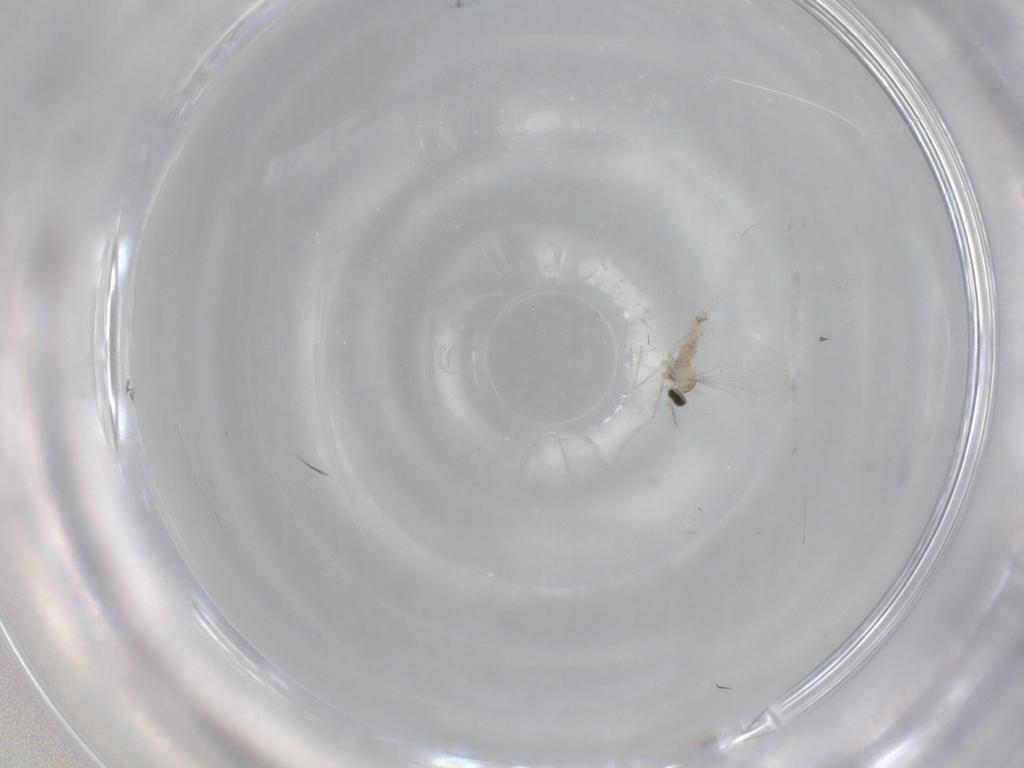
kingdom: Animalia
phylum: Arthropoda
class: Insecta
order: Diptera
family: Cecidomyiidae
